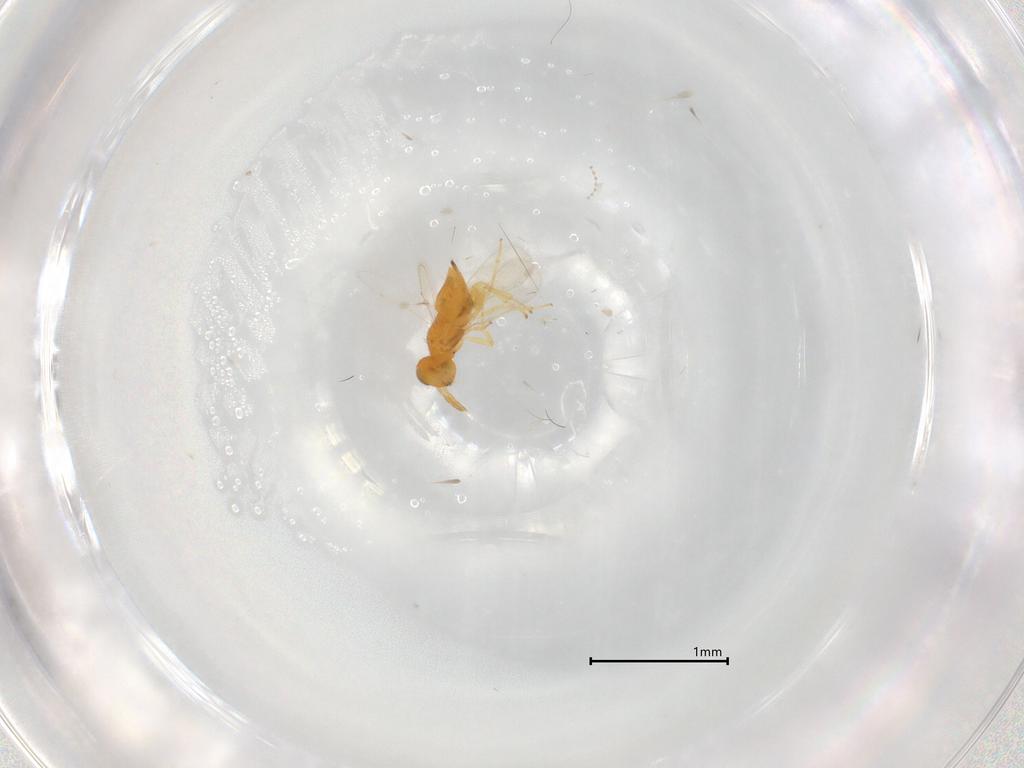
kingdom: Animalia
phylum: Arthropoda
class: Insecta
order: Hymenoptera
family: Aphelinidae
